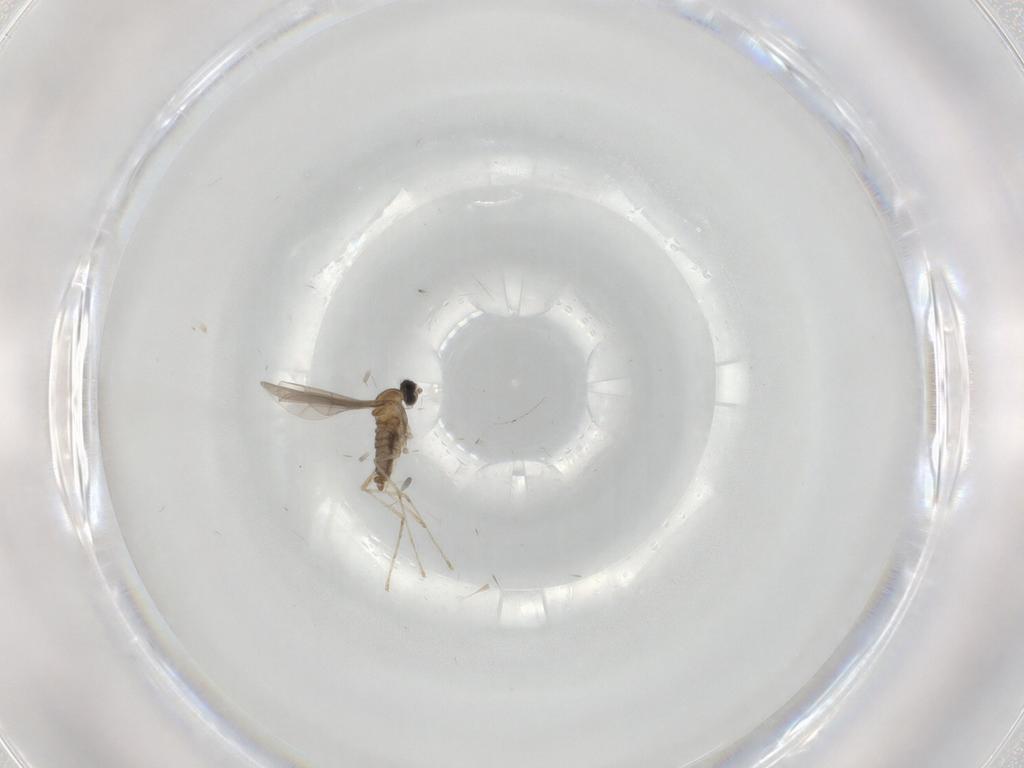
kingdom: Animalia
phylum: Arthropoda
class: Insecta
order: Diptera
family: Cecidomyiidae
